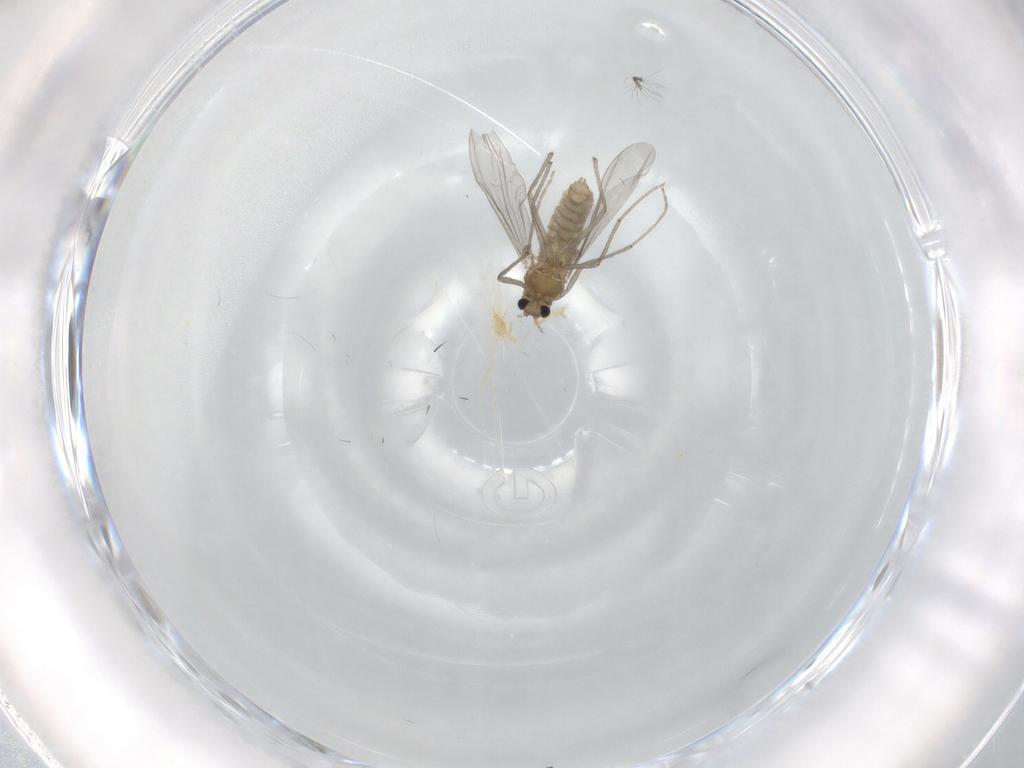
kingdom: Animalia
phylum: Arthropoda
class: Insecta
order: Diptera
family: Chironomidae
